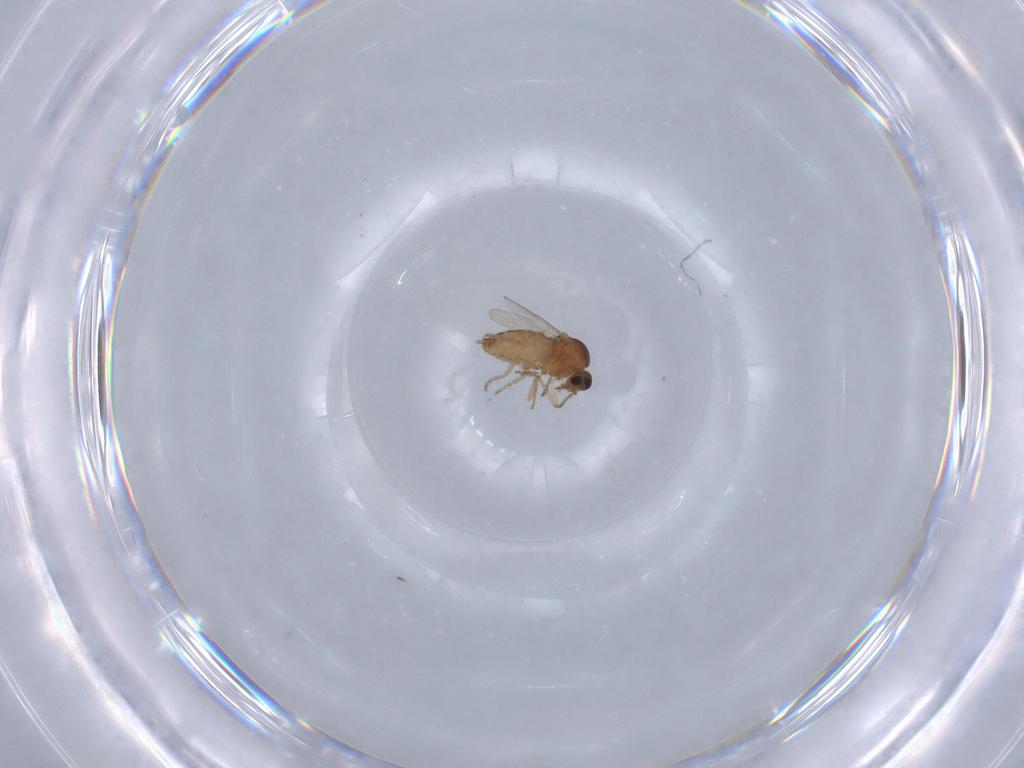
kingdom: Animalia
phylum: Arthropoda
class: Insecta
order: Diptera
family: Ceratopogonidae
